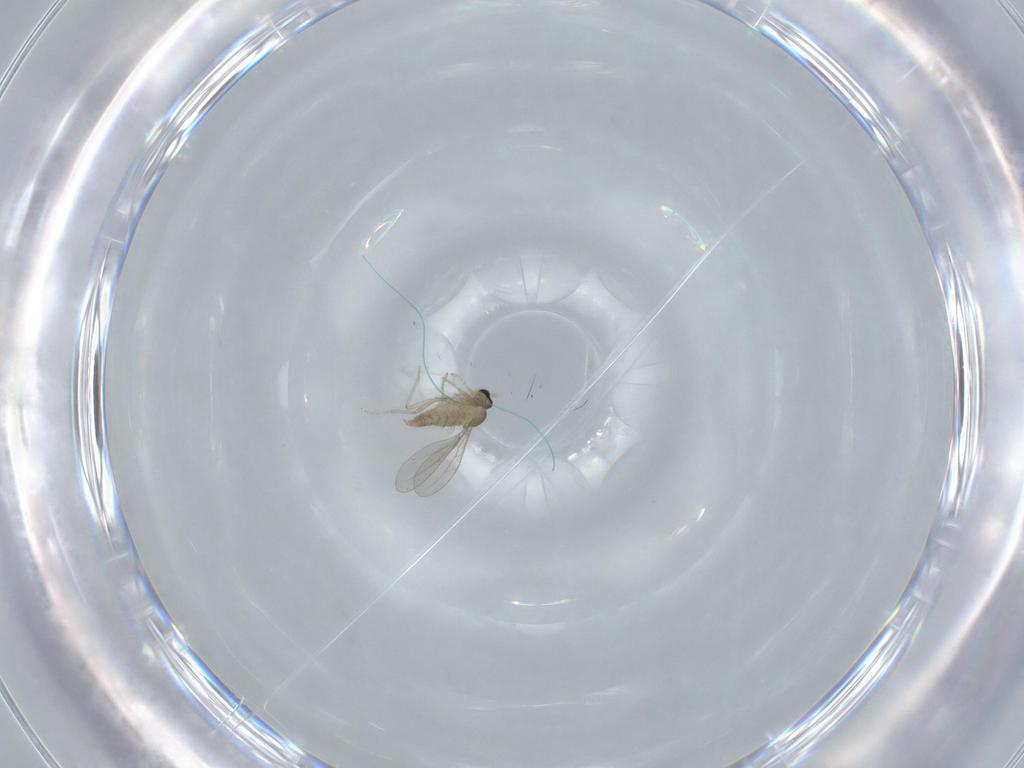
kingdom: Animalia
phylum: Arthropoda
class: Insecta
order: Diptera
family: Cecidomyiidae
